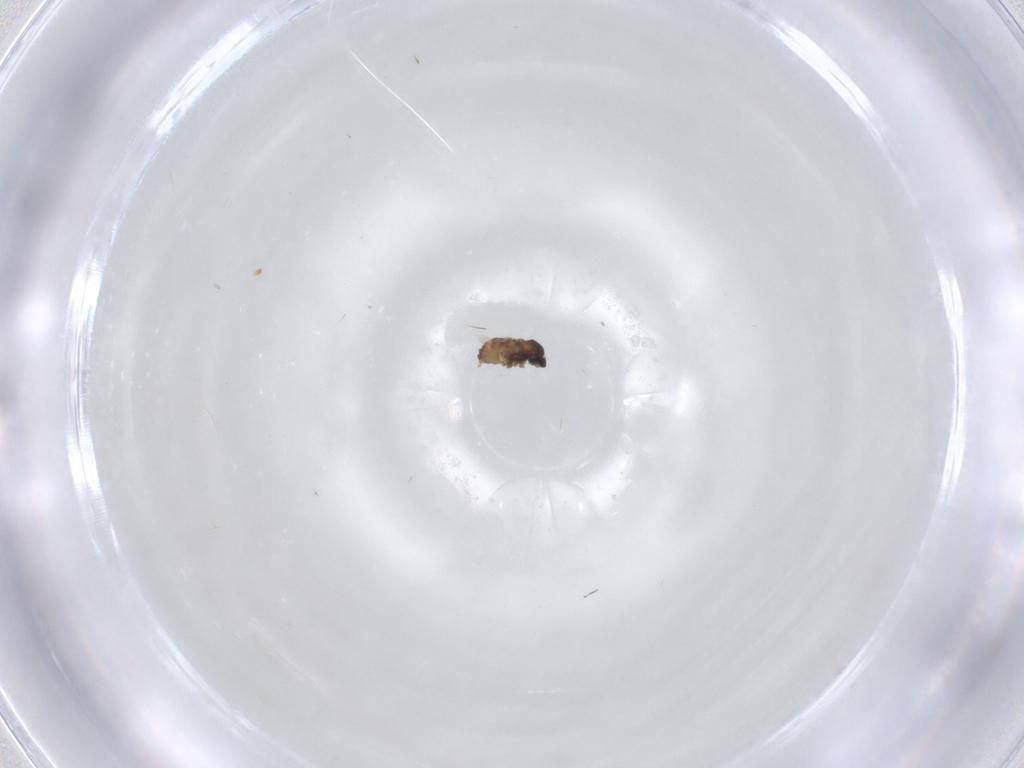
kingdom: Animalia
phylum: Arthropoda
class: Insecta
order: Diptera
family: Cecidomyiidae
